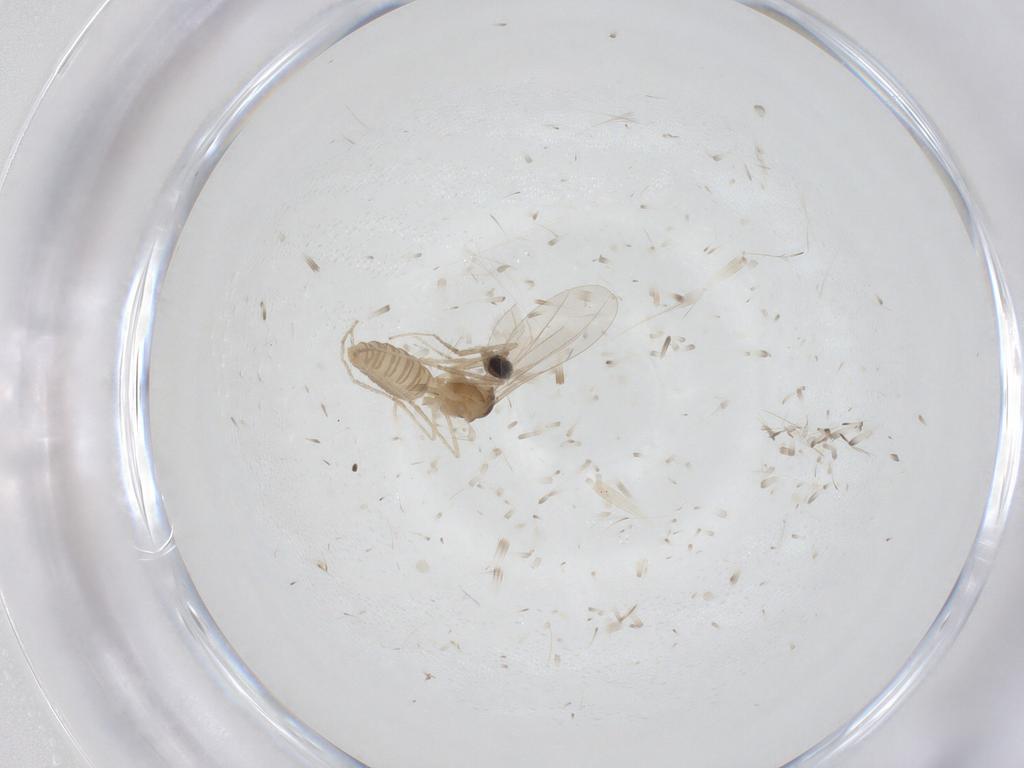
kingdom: Animalia
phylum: Arthropoda
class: Insecta
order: Diptera
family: Cecidomyiidae
